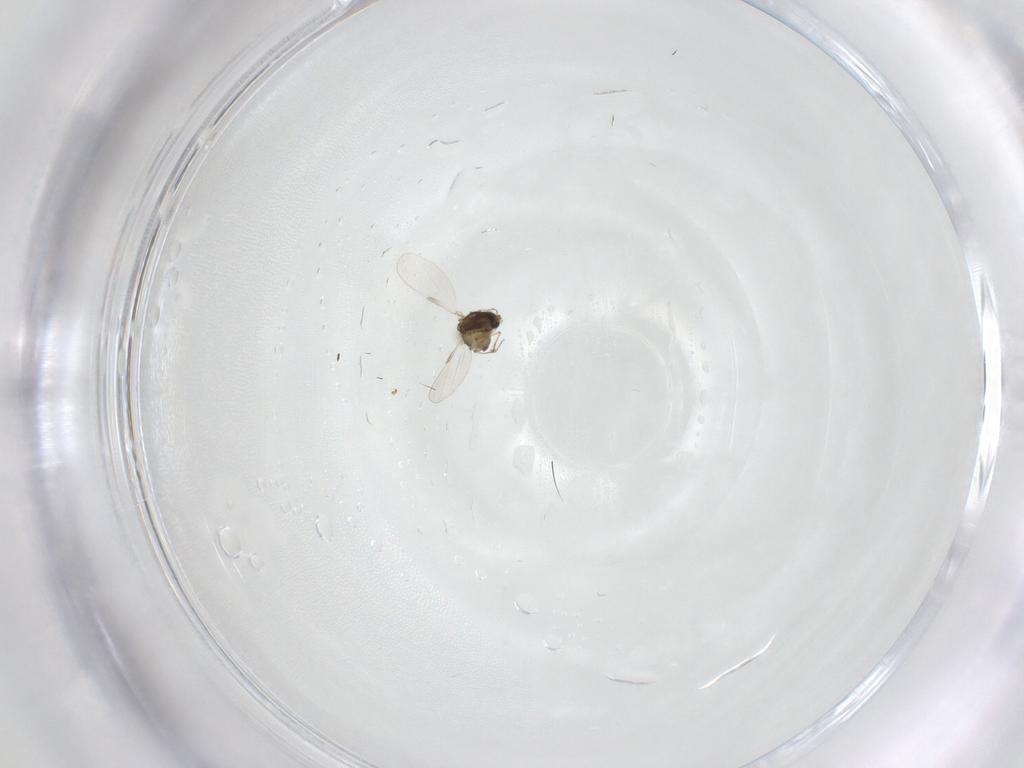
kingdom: Animalia
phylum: Arthropoda
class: Insecta
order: Diptera
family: Chironomidae
